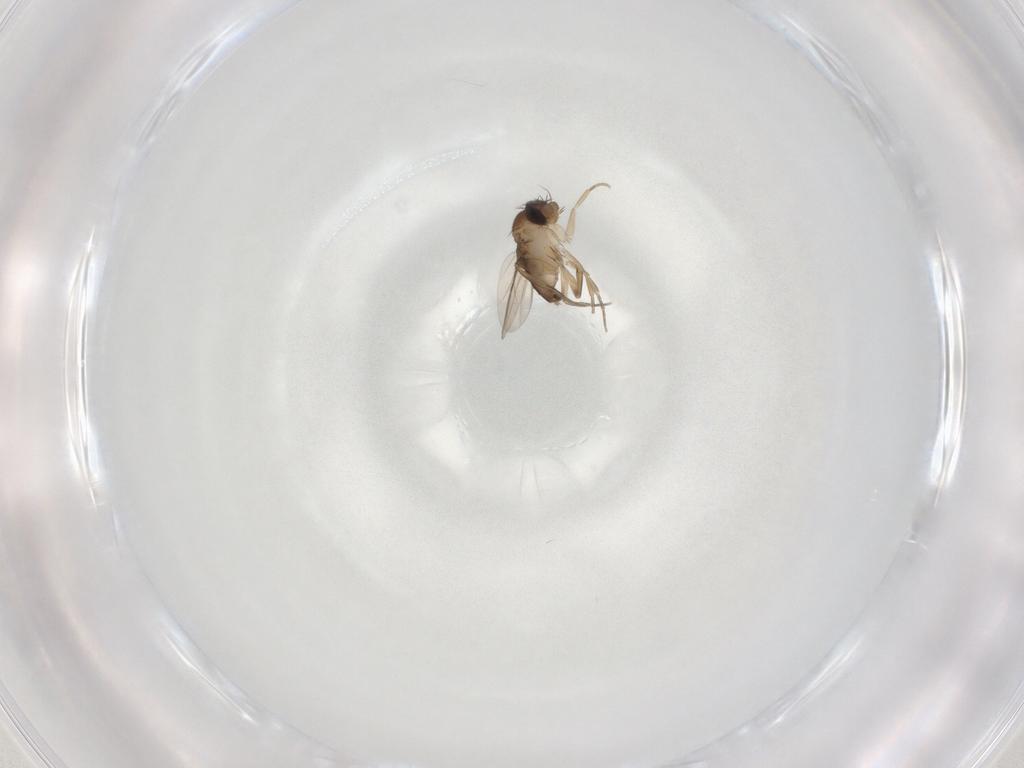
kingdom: Animalia
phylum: Arthropoda
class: Insecta
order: Diptera
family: Phoridae
